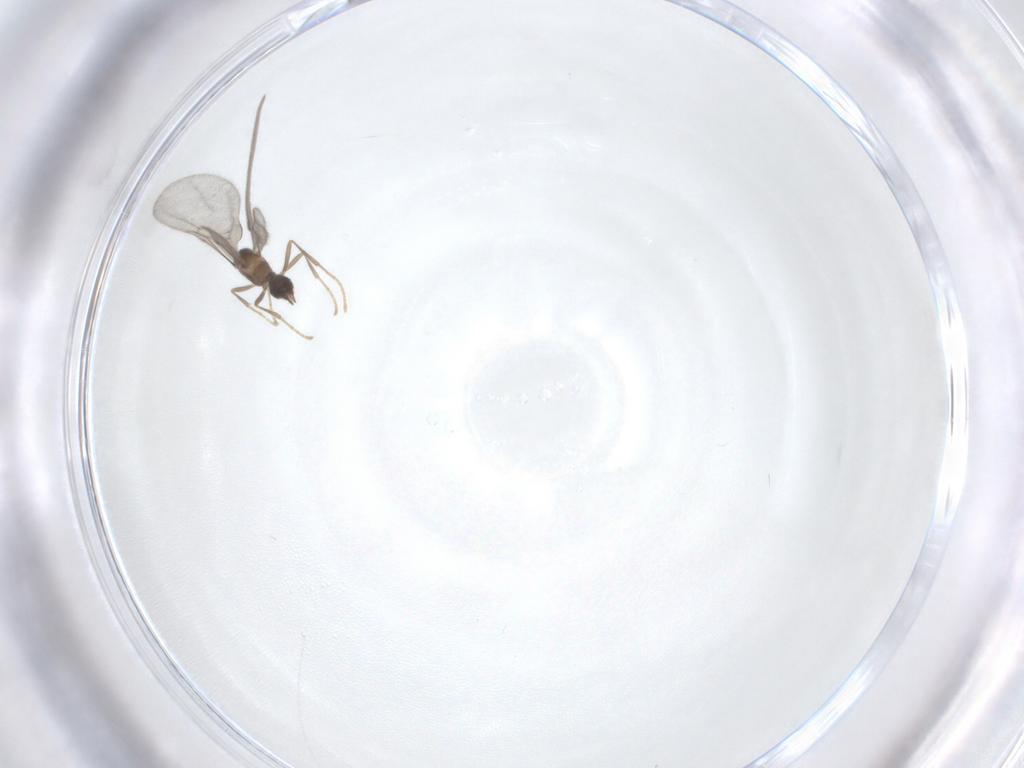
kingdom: Animalia
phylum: Arthropoda
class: Insecta
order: Hymenoptera
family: Formicidae
